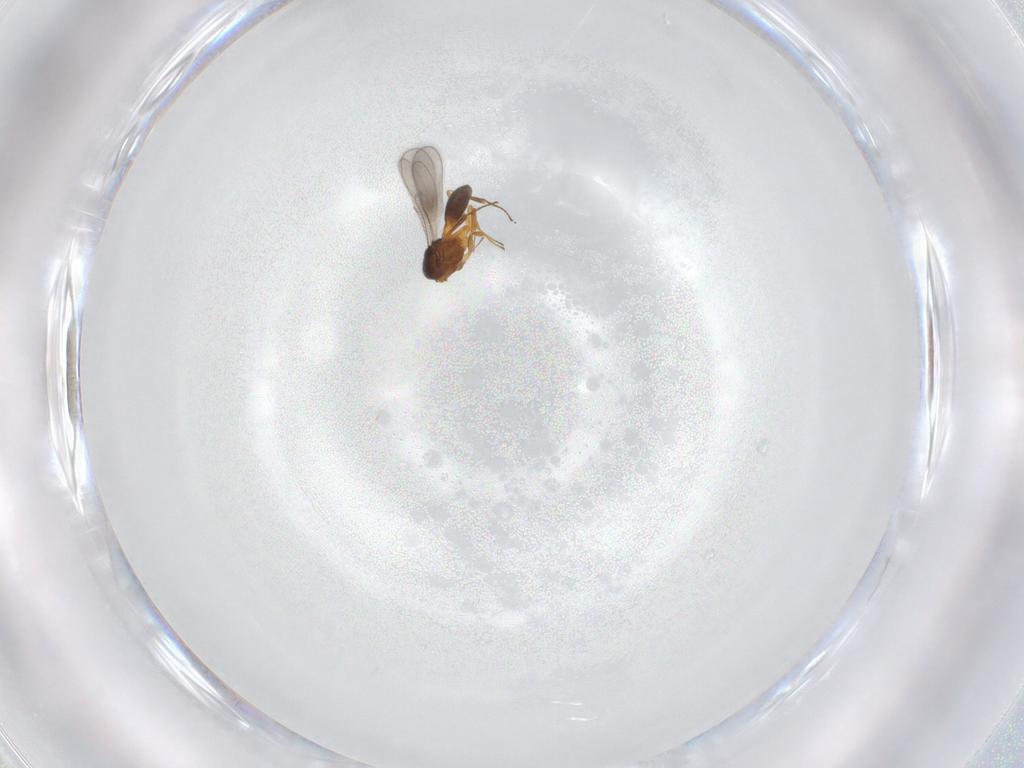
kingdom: Animalia
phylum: Arthropoda
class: Insecta
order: Hymenoptera
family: Scelionidae
